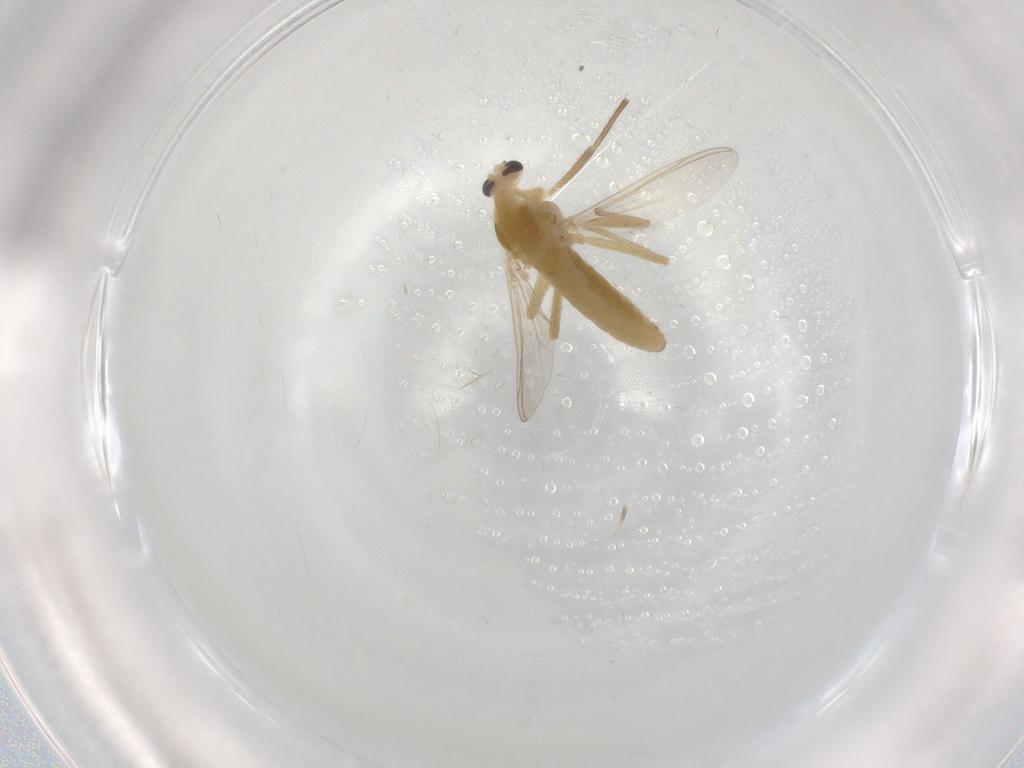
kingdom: Animalia
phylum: Arthropoda
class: Insecta
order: Diptera
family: Chironomidae
